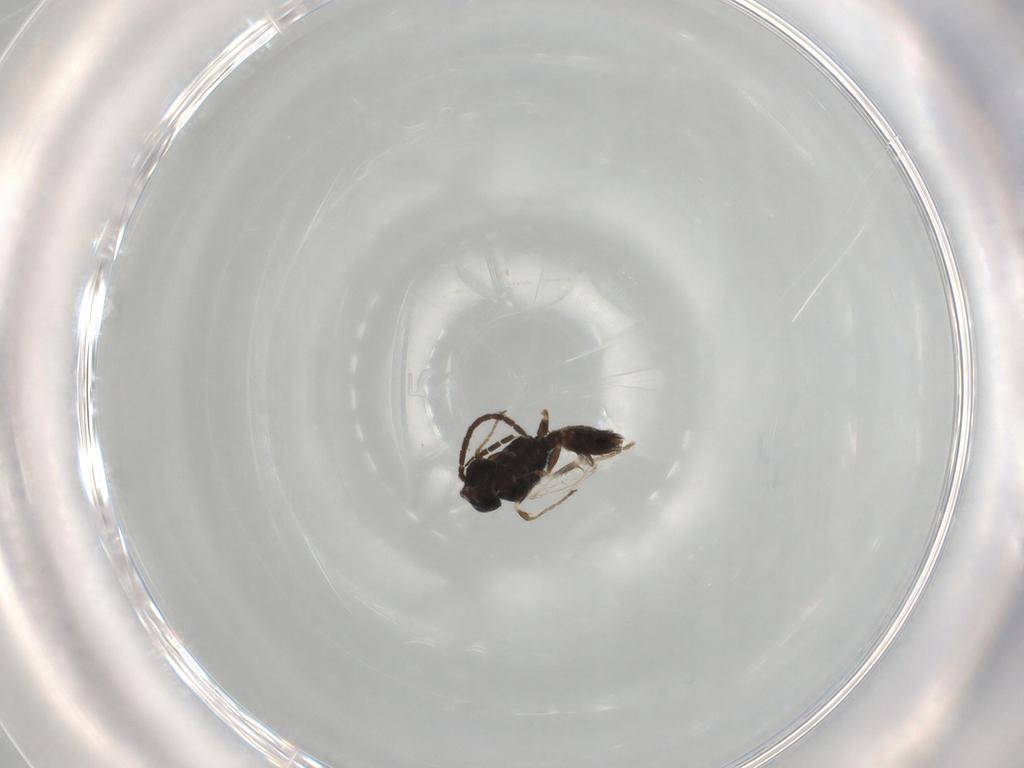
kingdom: Animalia
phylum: Arthropoda
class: Insecta
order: Hymenoptera
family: Dryinidae
